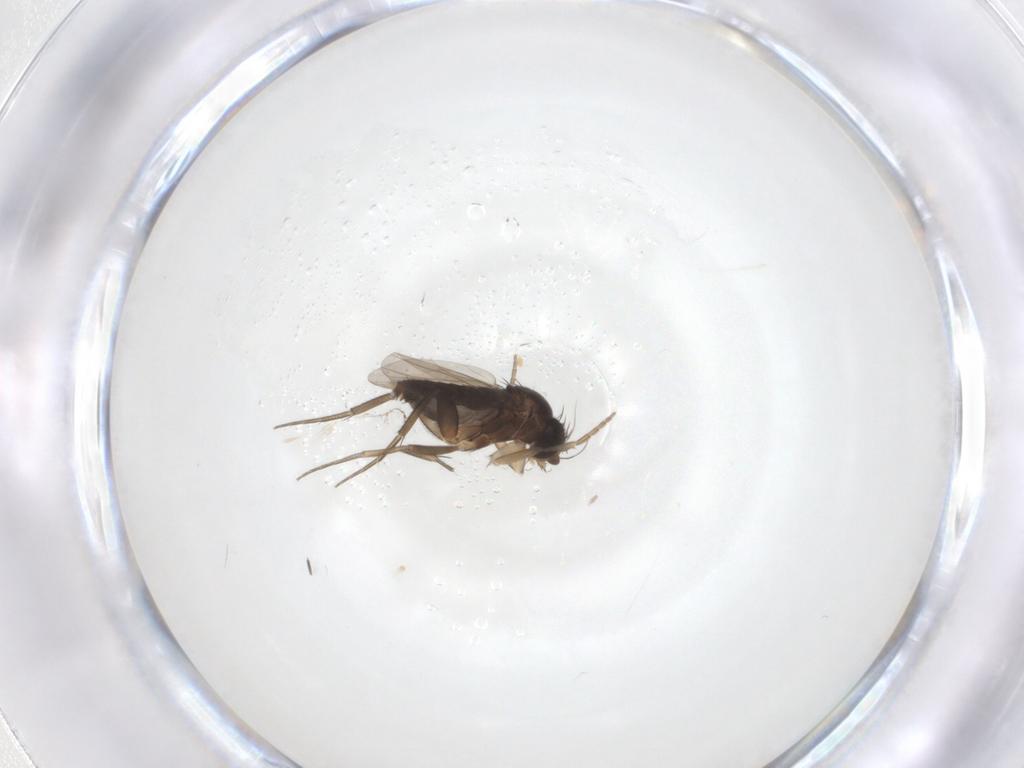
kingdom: Animalia
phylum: Arthropoda
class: Insecta
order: Diptera
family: Phoridae
